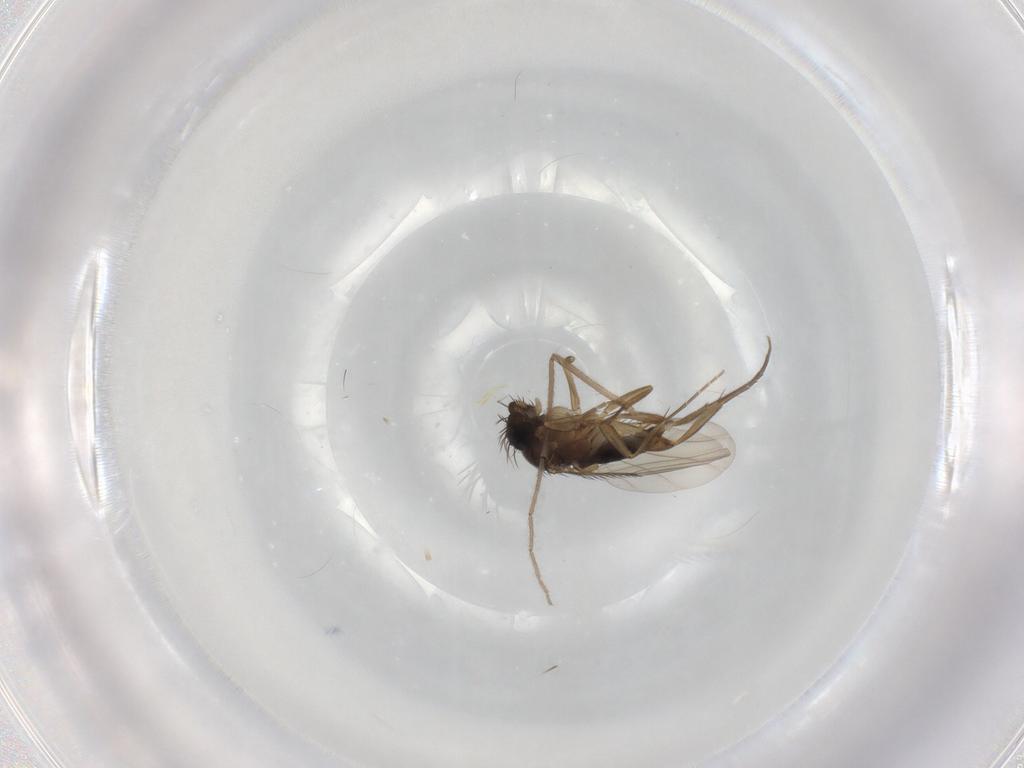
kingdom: Animalia
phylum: Arthropoda
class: Insecta
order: Diptera
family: Phoridae
